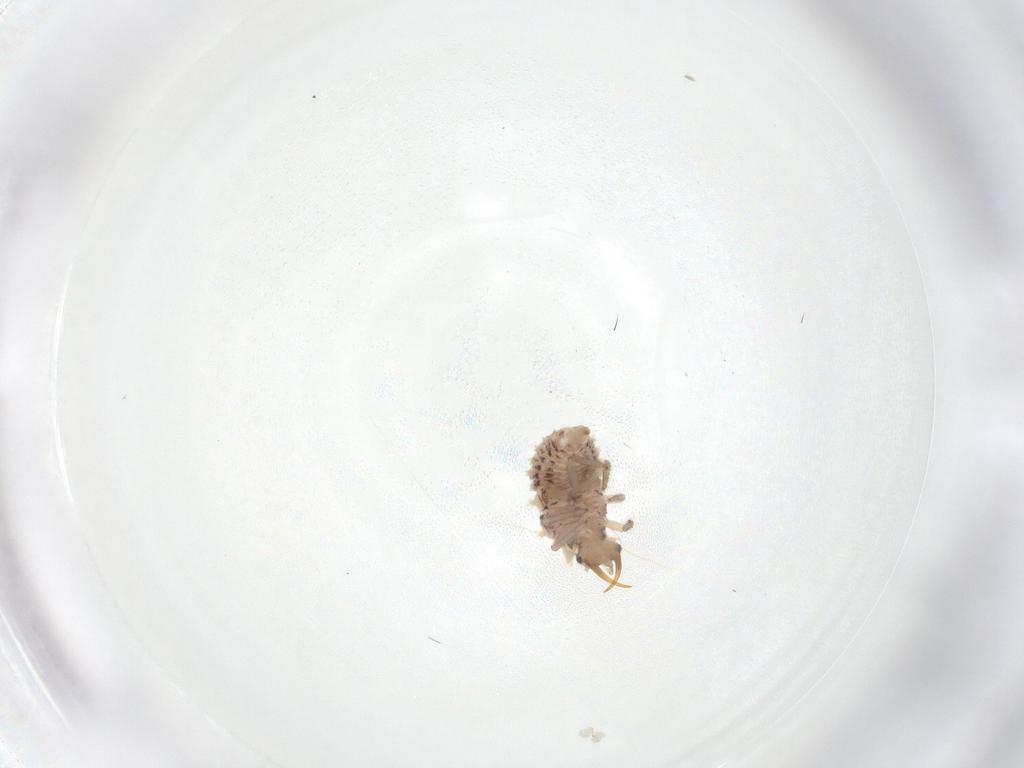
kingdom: Animalia
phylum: Arthropoda
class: Insecta
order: Neuroptera
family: Chrysopidae
